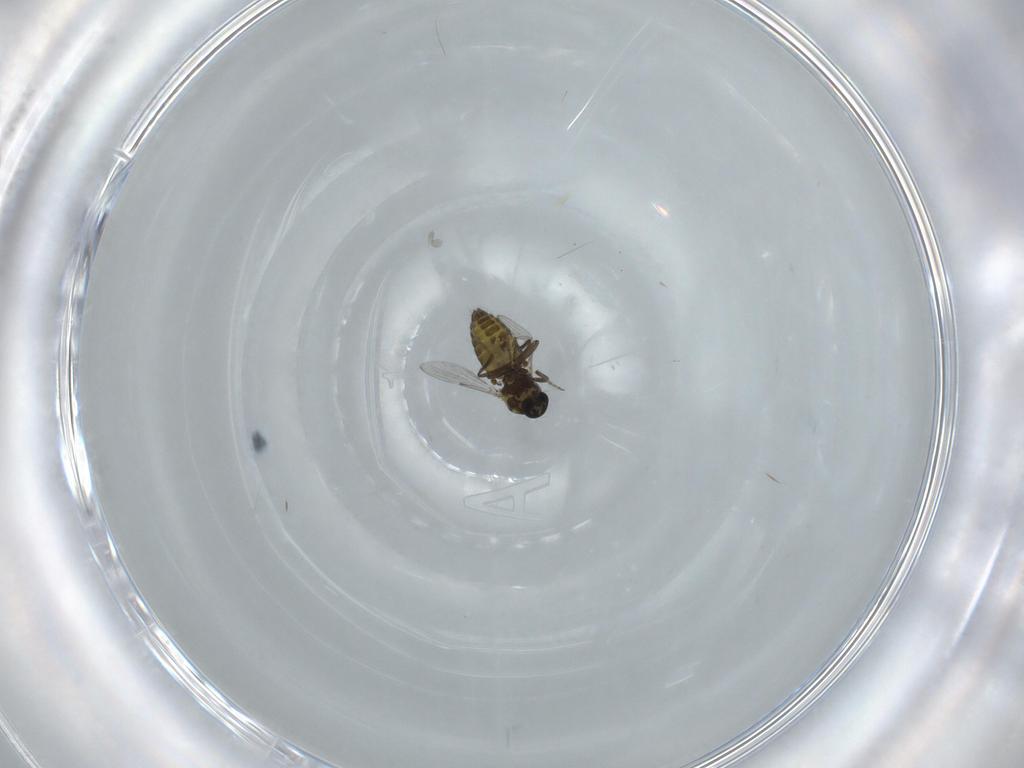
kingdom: Animalia
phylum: Arthropoda
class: Insecta
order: Diptera
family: Ceratopogonidae
